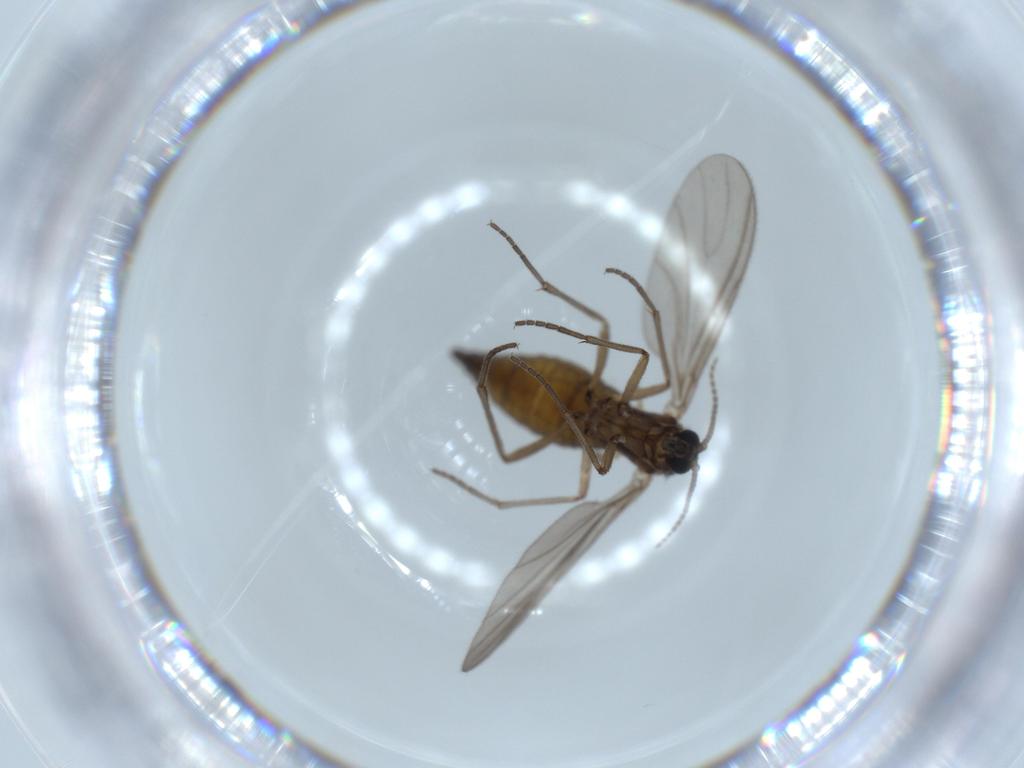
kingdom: Animalia
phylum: Arthropoda
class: Insecta
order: Diptera
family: Sciaridae
